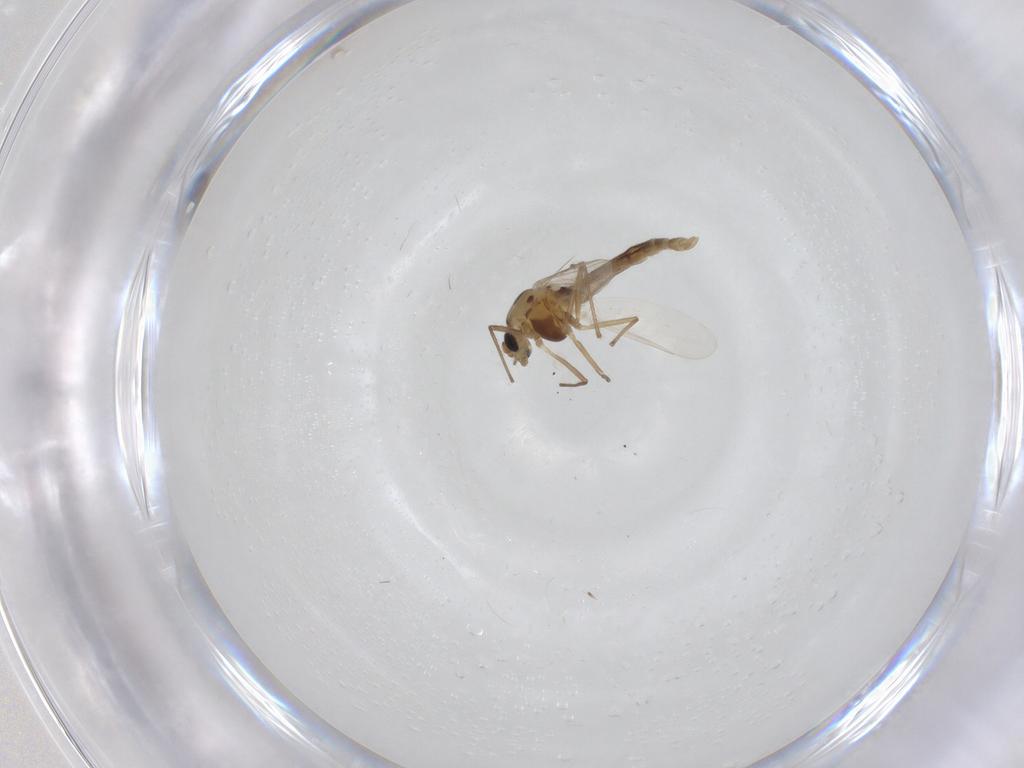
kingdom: Animalia
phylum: Arthropoda
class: Insecta
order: Diptera
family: Chironomidae
